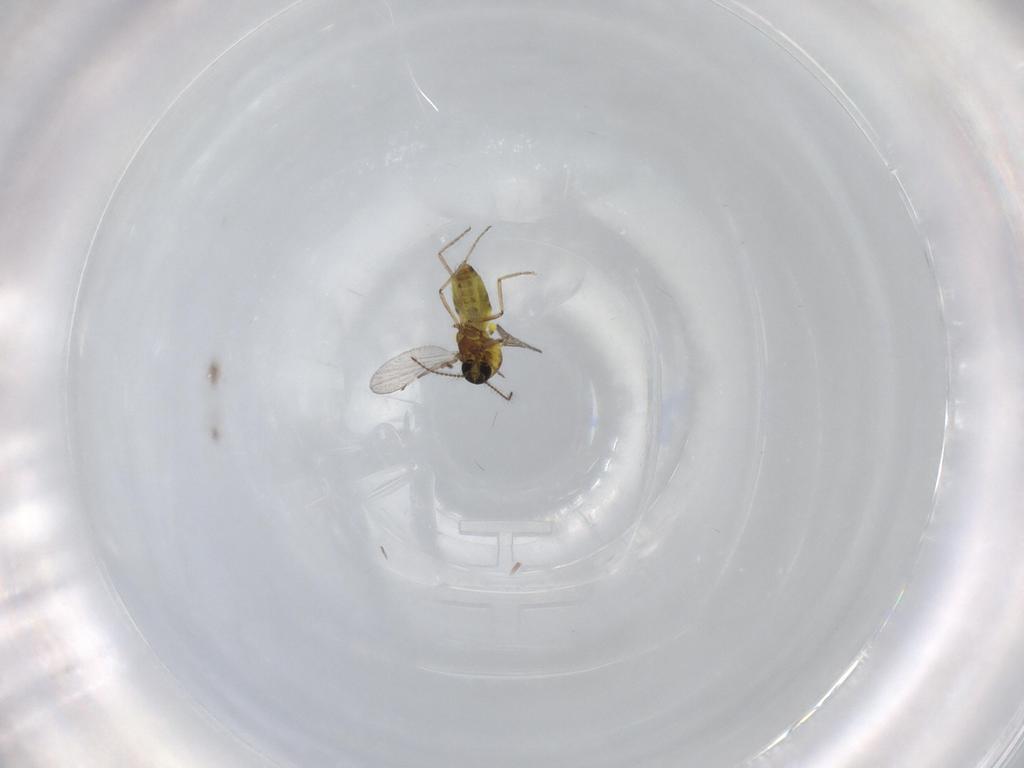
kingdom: Animalia
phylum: Arthropoda
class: Insecta
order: Diptera
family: Ceratopogonidae
